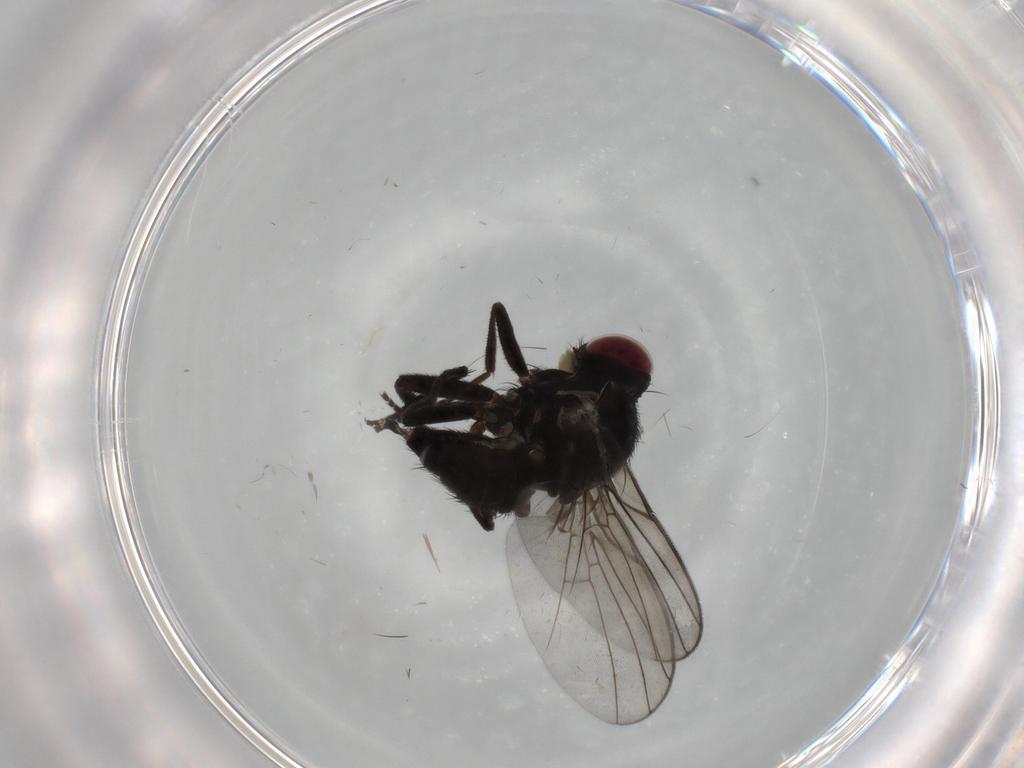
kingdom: Animalia
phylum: Arthropoda
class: Insecta
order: Diptera
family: Agromyzidae
